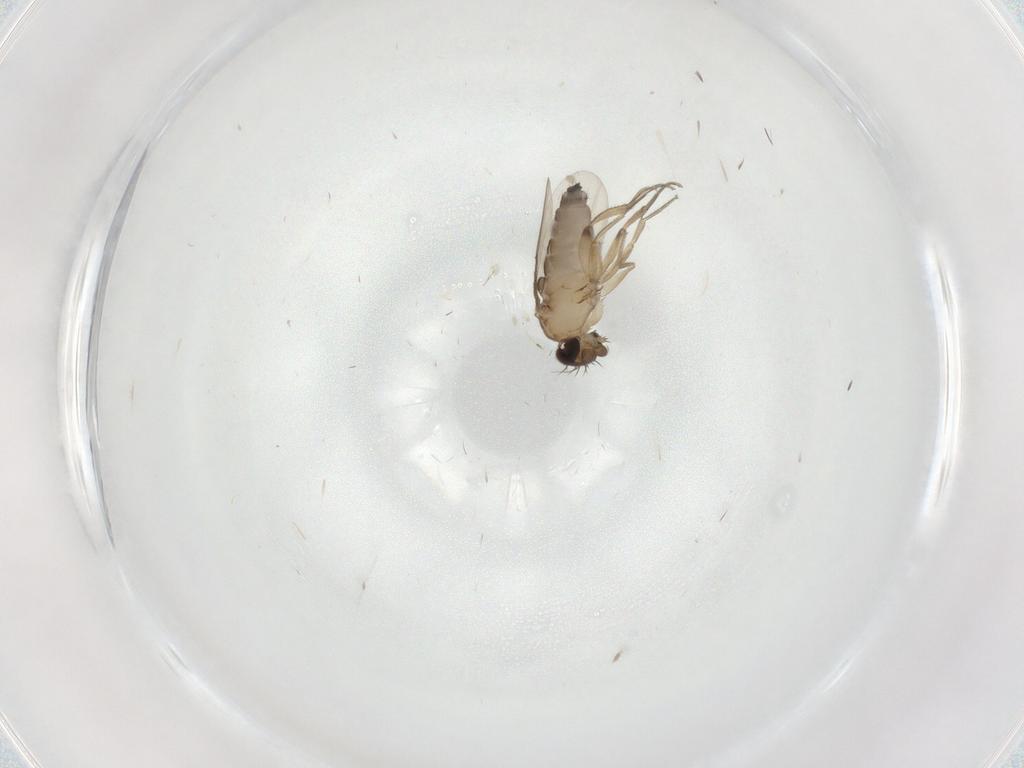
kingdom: Animalia
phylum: Arthropoda
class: Insecta
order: Diptera
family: Phoridae
